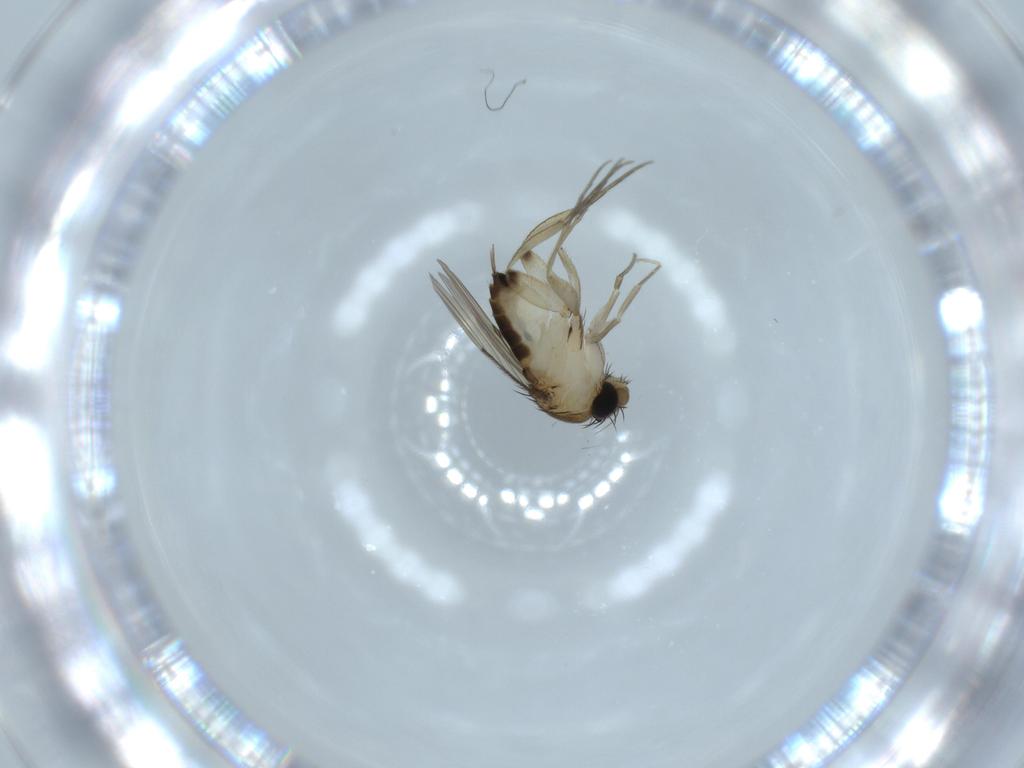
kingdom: Animalia
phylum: Arthropoda
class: Insecta
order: Diptera
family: Phoridae
